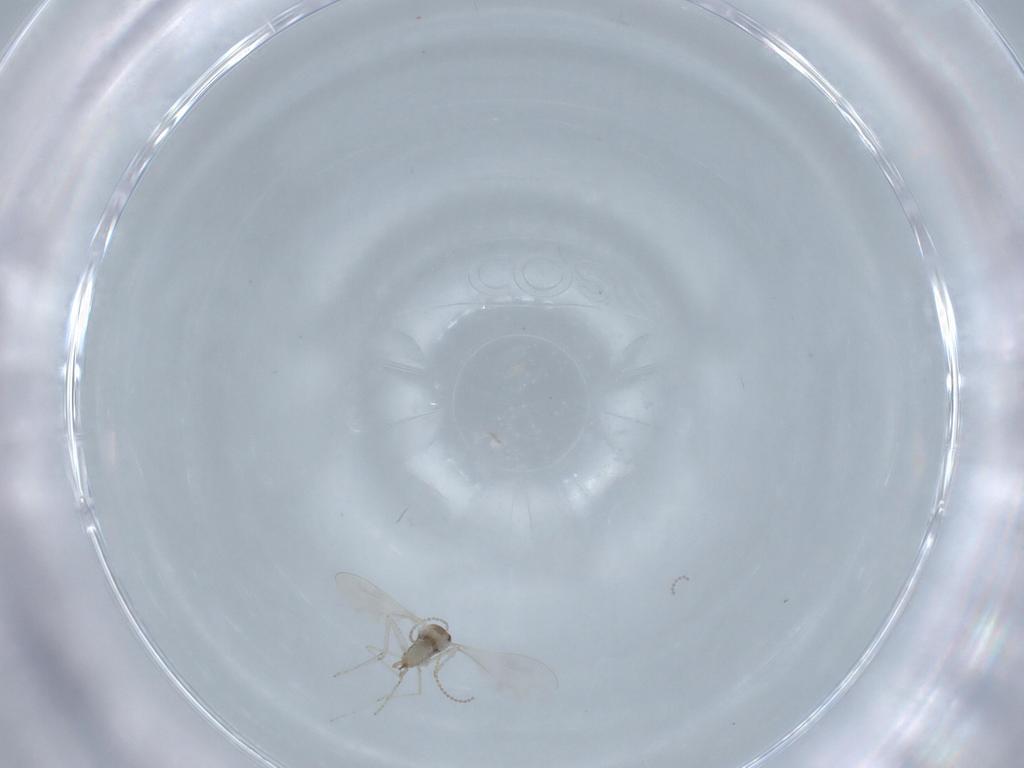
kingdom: Animalia
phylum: Arthropoda
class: Insecta
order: Diptera
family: Cecidomyiidae
